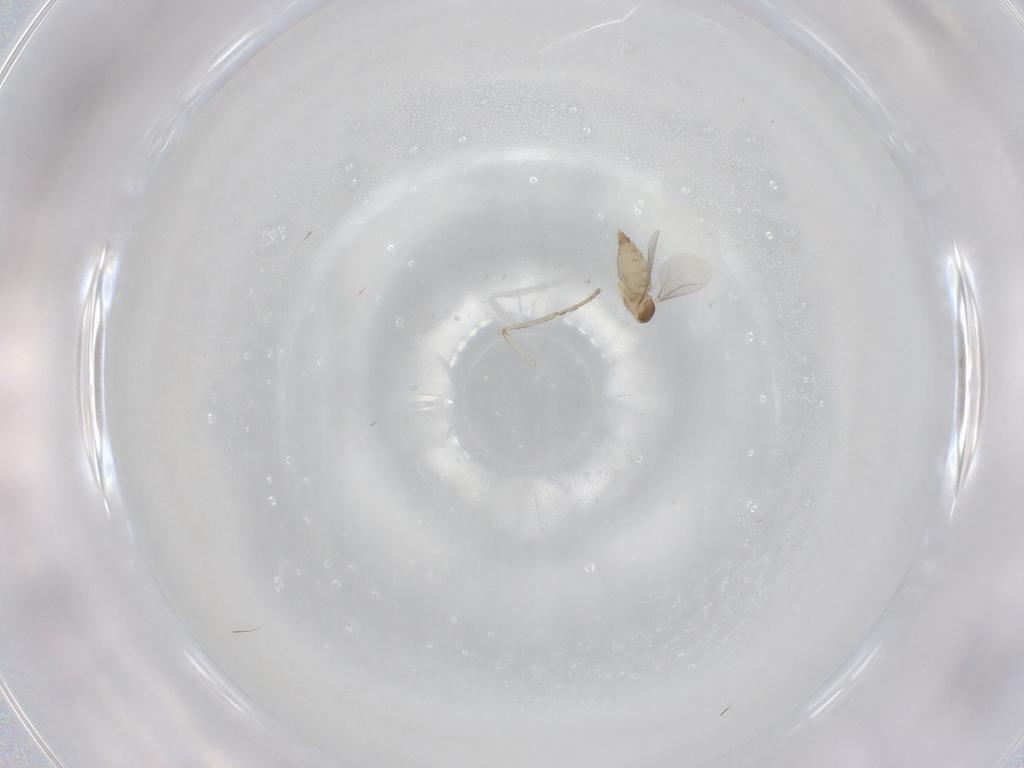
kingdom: Animalia
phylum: Arthropoda
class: Insecta
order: Diptera
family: Cecidomyiidae
